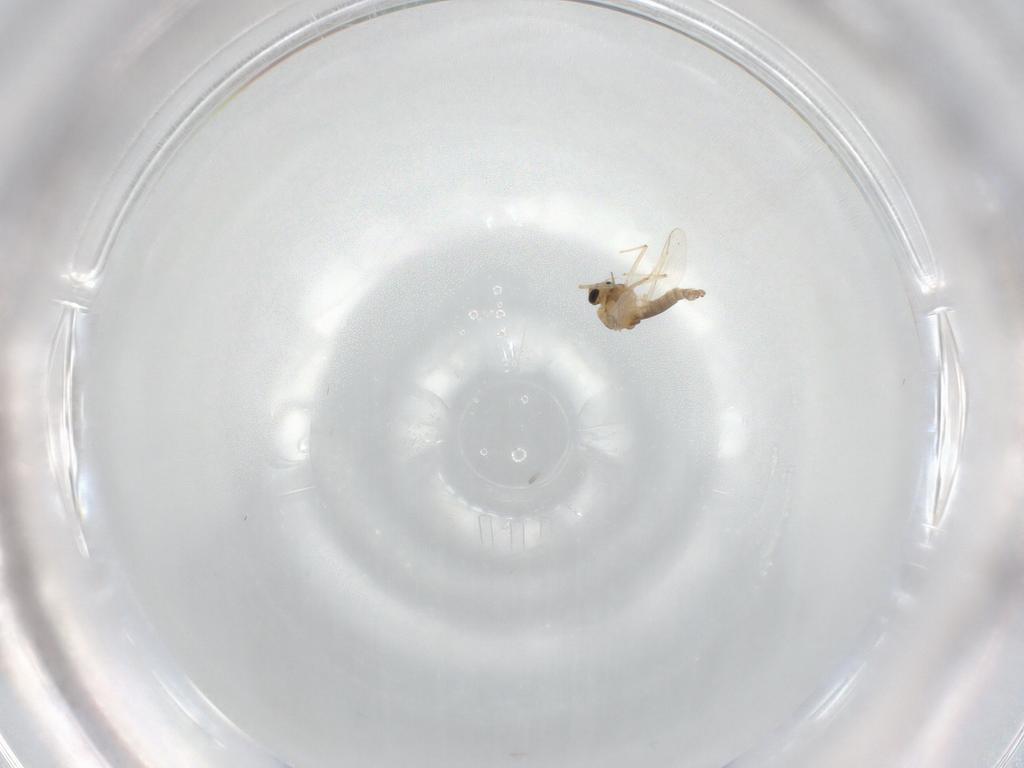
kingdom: Animalia
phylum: Arthropoda
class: Insecta
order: Diptera
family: Chironomidae
